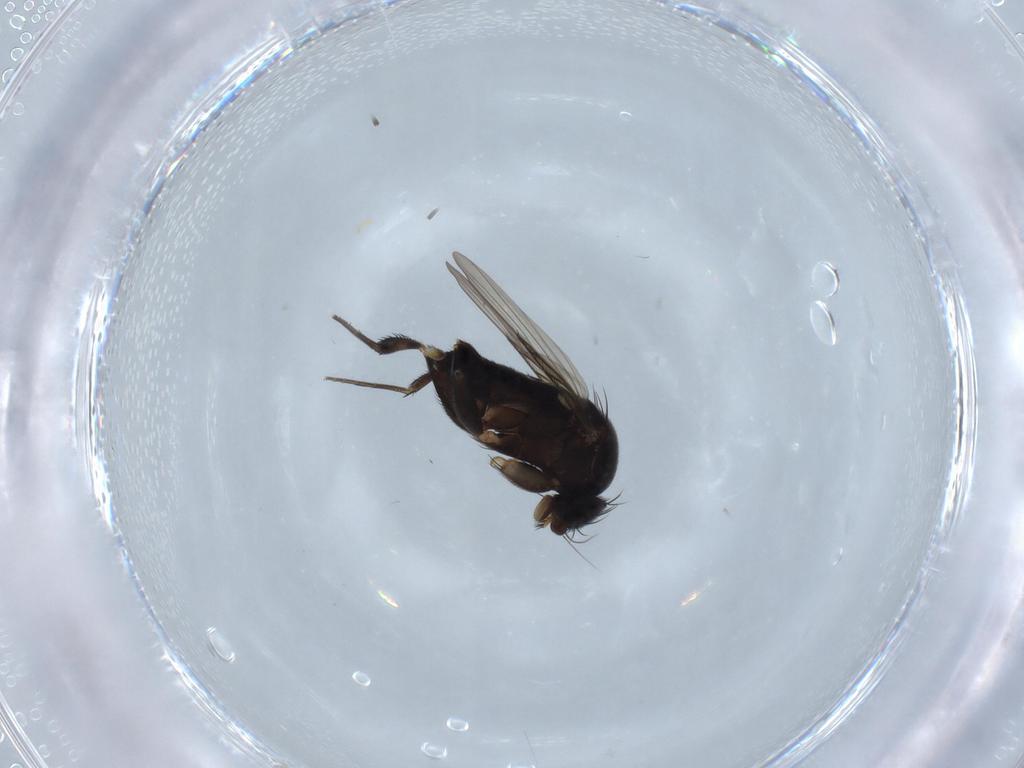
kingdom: Animalia
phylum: Arthropoda
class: Insecta
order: Diptera
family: Phoridae
